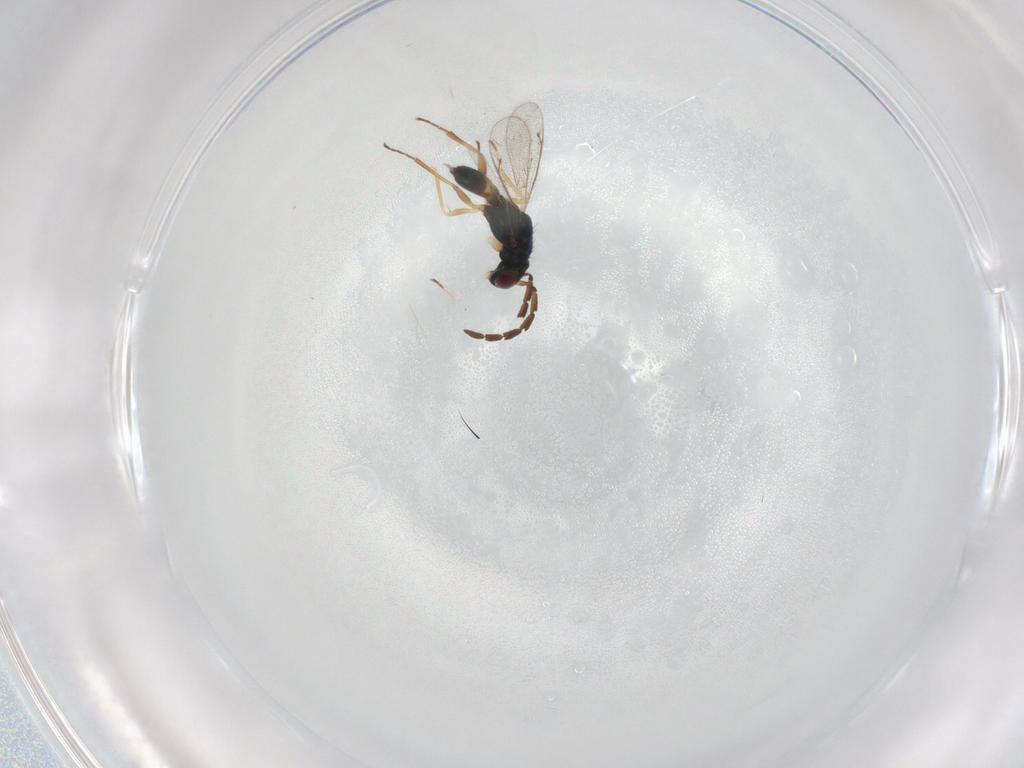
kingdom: Animalia
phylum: Arthropoda
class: Insecta
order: Hymenoptera
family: Eulophidae
